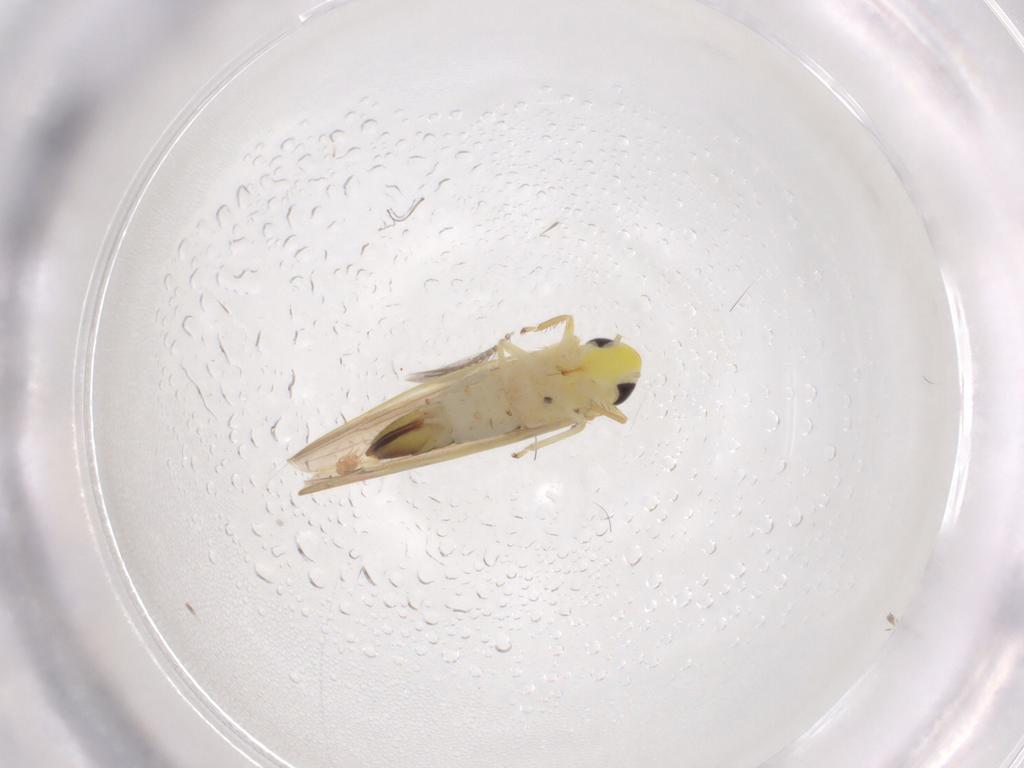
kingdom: Animalia
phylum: Arthropoda
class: Insecta
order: Hemiptera
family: Cicadellidae
